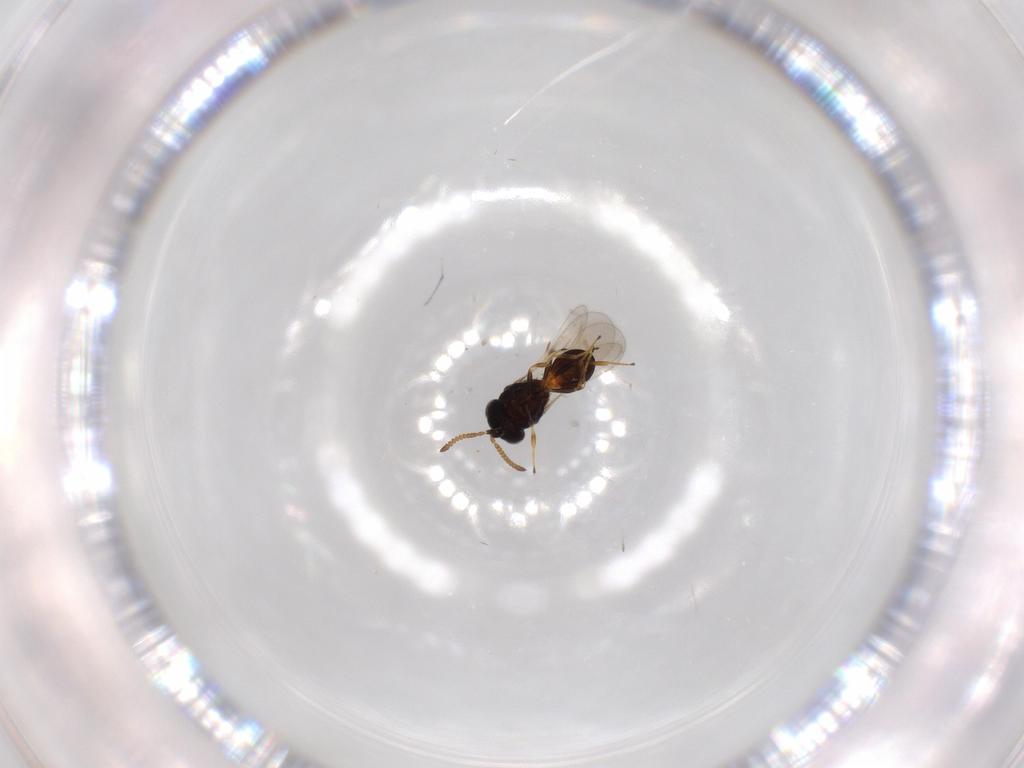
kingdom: Animalia
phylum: Arthropoda
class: Insecta
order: Hymenoptera
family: Scelionidae
